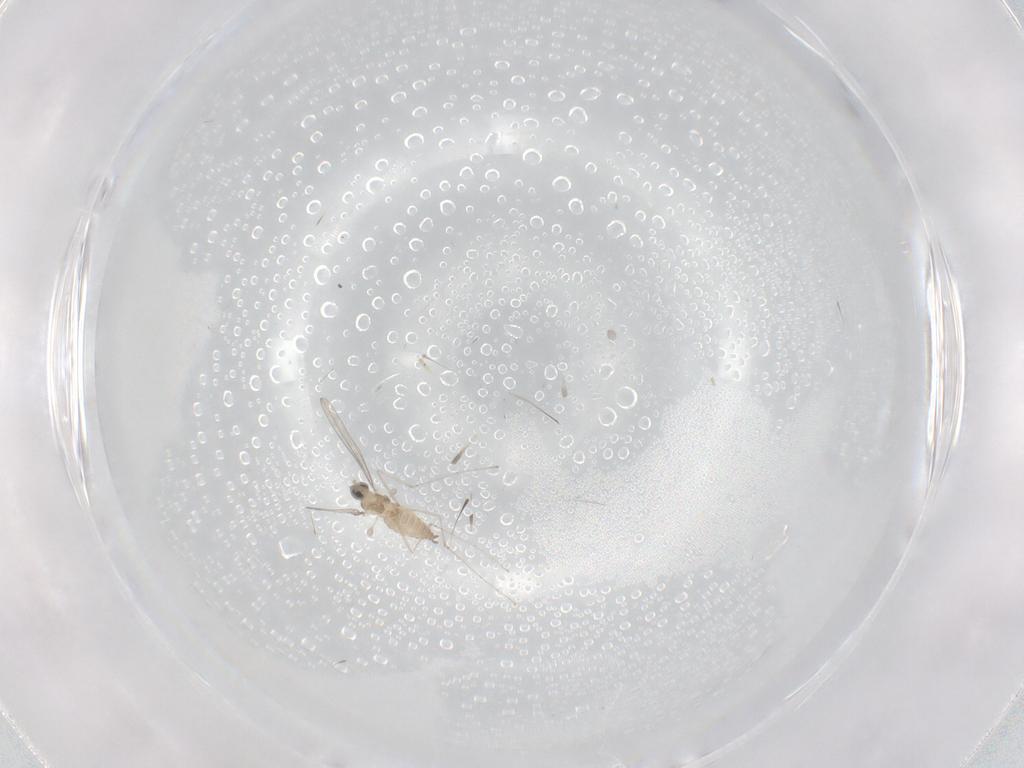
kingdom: Animalia
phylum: Arthropoda
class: Insecta
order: Diptera
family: Cecidomyiidae
